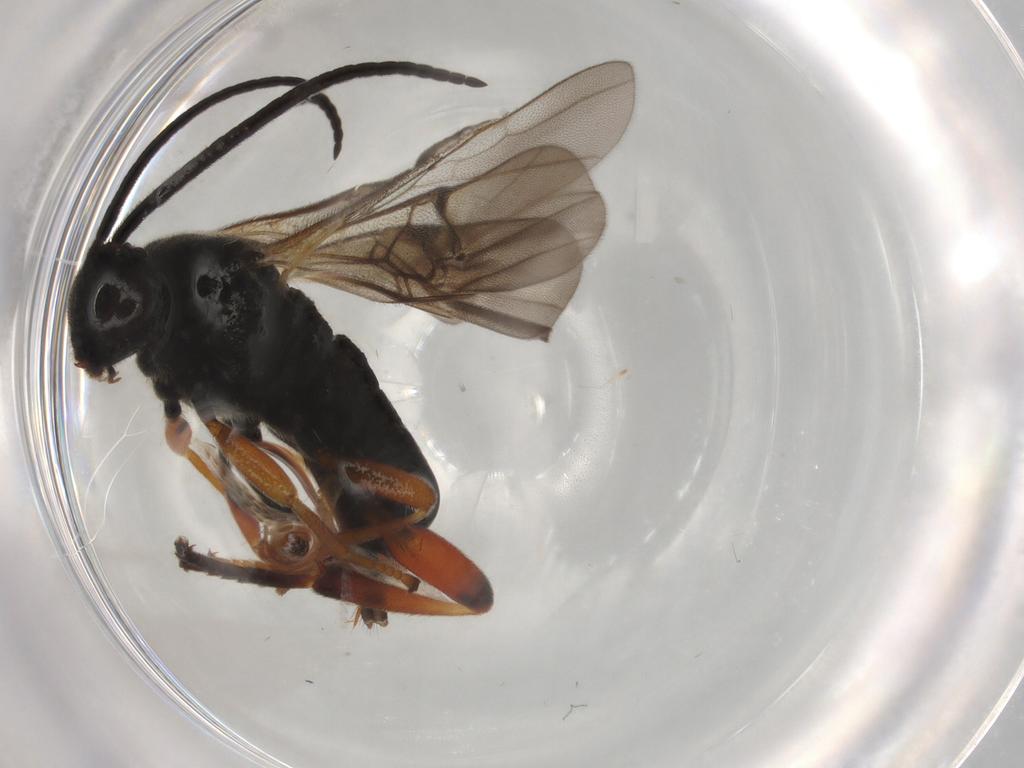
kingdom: Animalia
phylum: Arthropoda
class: Insecta
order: Hymenoptera
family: Braconidae
